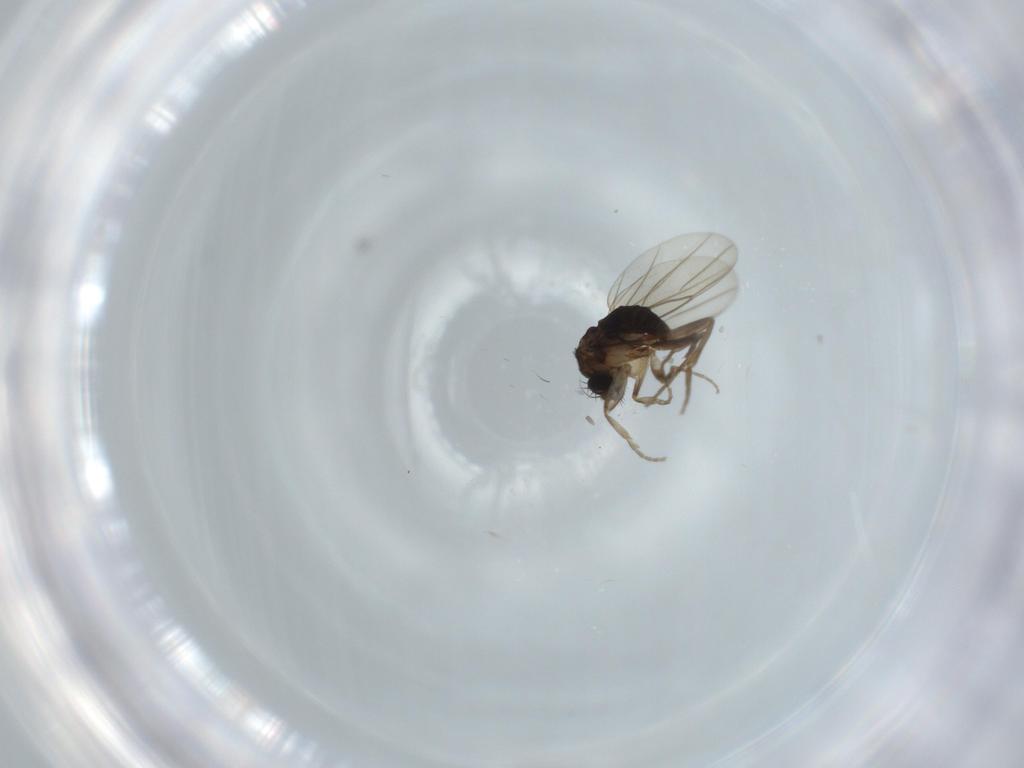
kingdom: Animalia
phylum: Arthropoda
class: Insecta
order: Diptera
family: Phoridae
